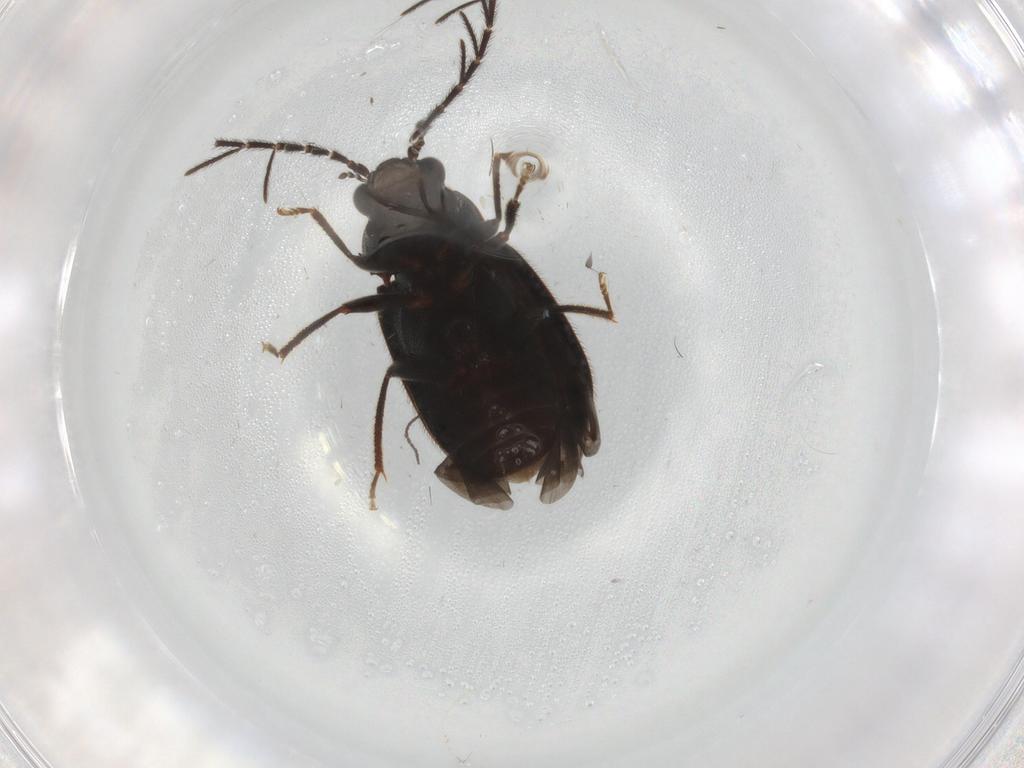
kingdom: Animalia
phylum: Arthropoda
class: Insecta
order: Coleoptera
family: Ptilodactylidae
